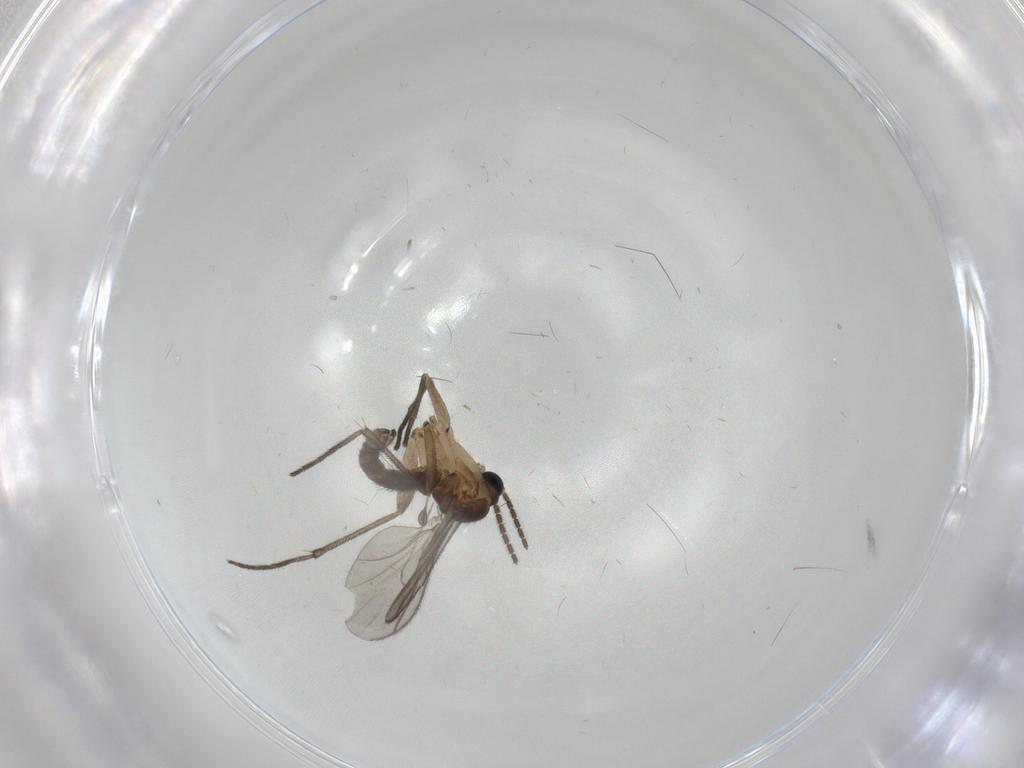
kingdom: Animalia
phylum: Arthropoda
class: Insecta
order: Diptera
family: Sciaridae
